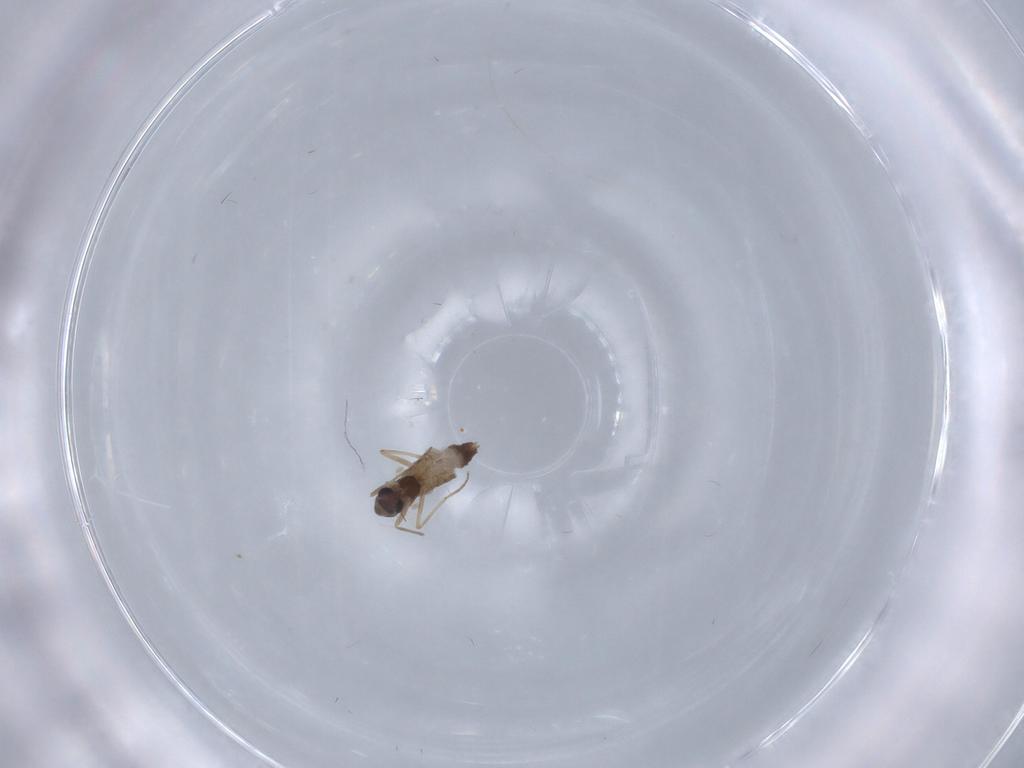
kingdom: Animalia
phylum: Arthropoda
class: Insecta
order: Diptera
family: Chironomidae
